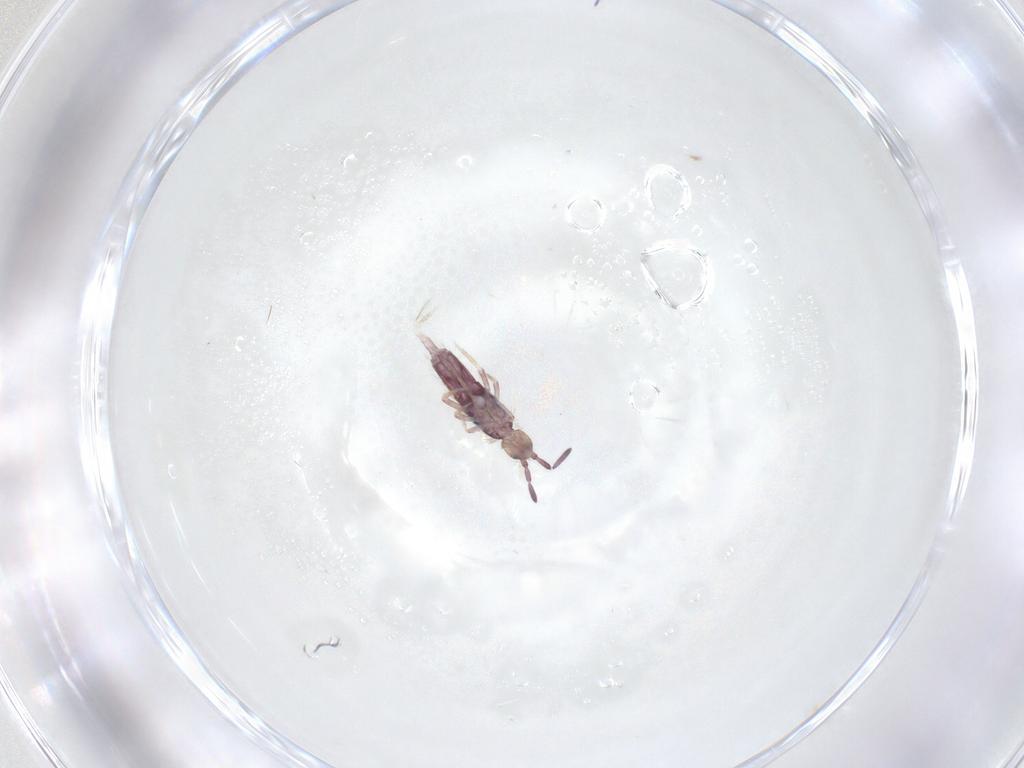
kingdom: Animalia
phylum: Arthropoda
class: Collembola
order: Entomobryomorpha
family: Entomobryidae
